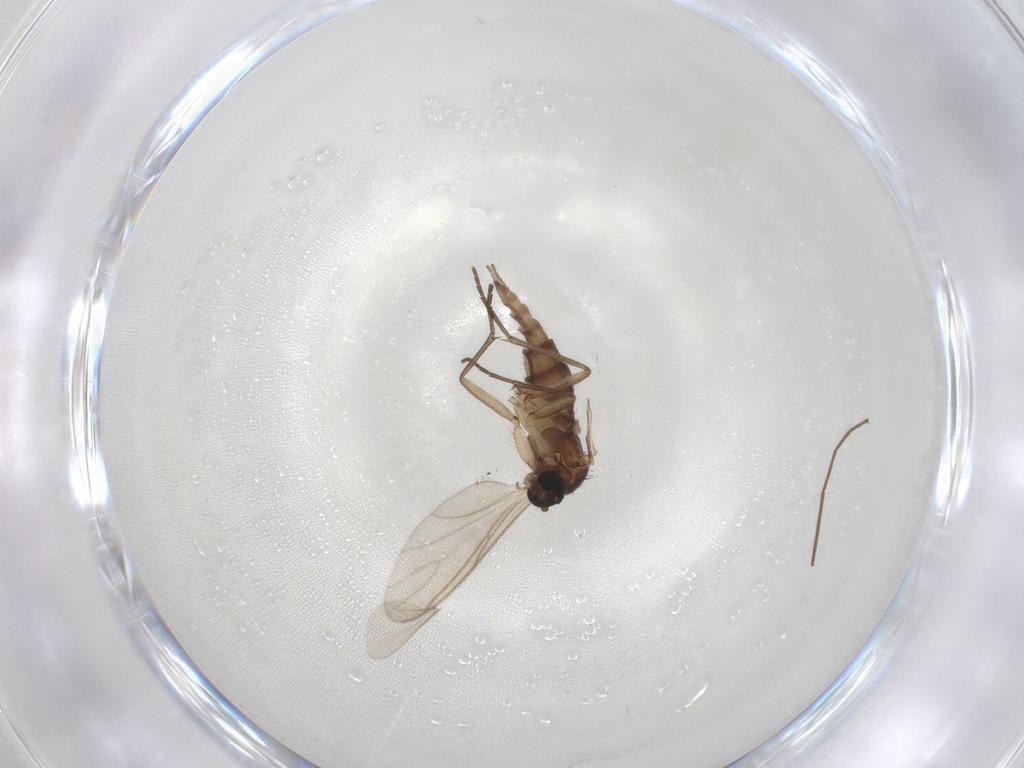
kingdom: Animalia
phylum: Arthropoda
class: Insecta
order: Diptera
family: Sciaridae
